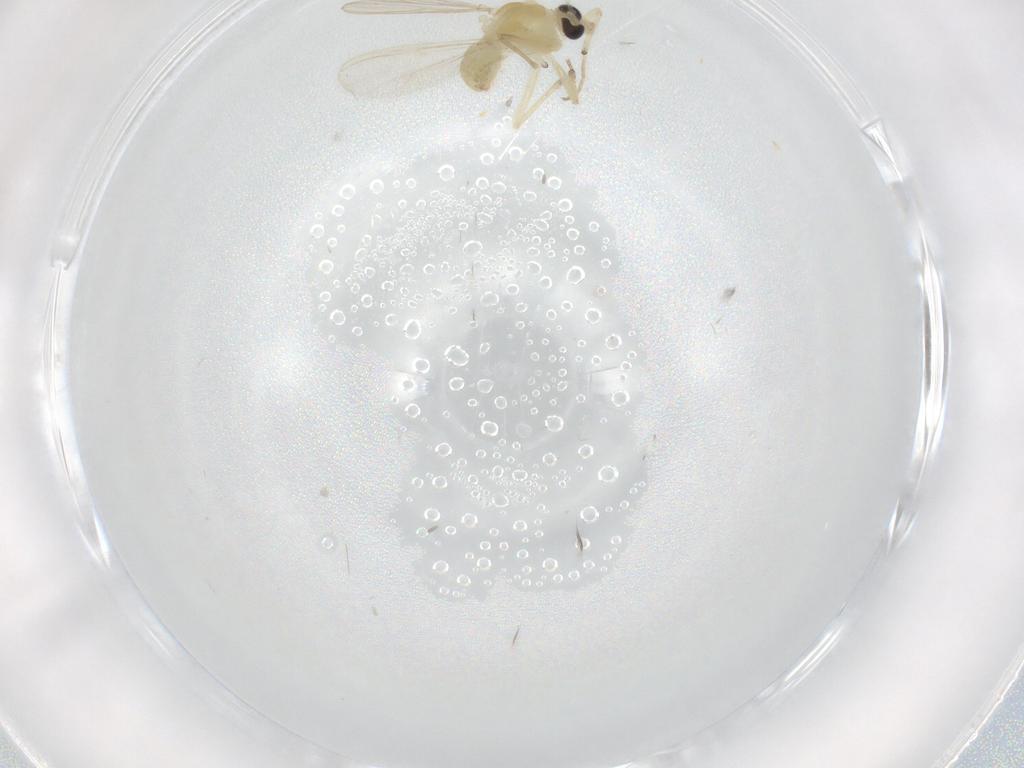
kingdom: Animalia
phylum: Arthropoda
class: Insecta
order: Diptera
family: Chironomidae
